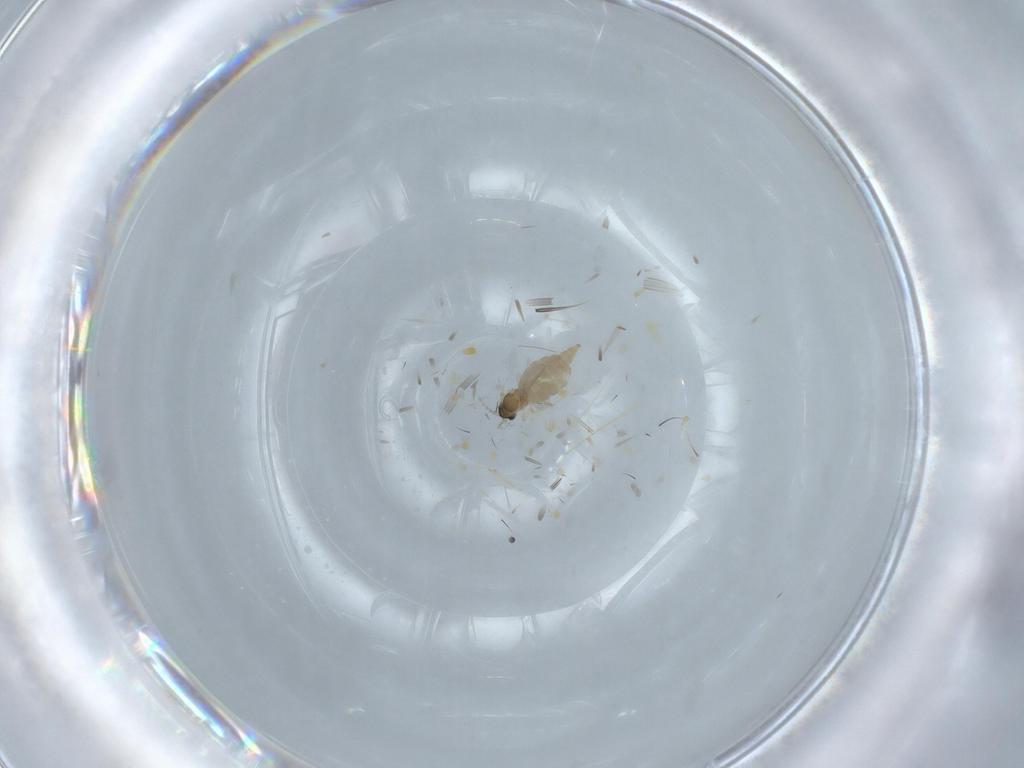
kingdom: Animalia
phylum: Arthropoda
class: Insecta
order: Diptera
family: Cecidomyiidae
